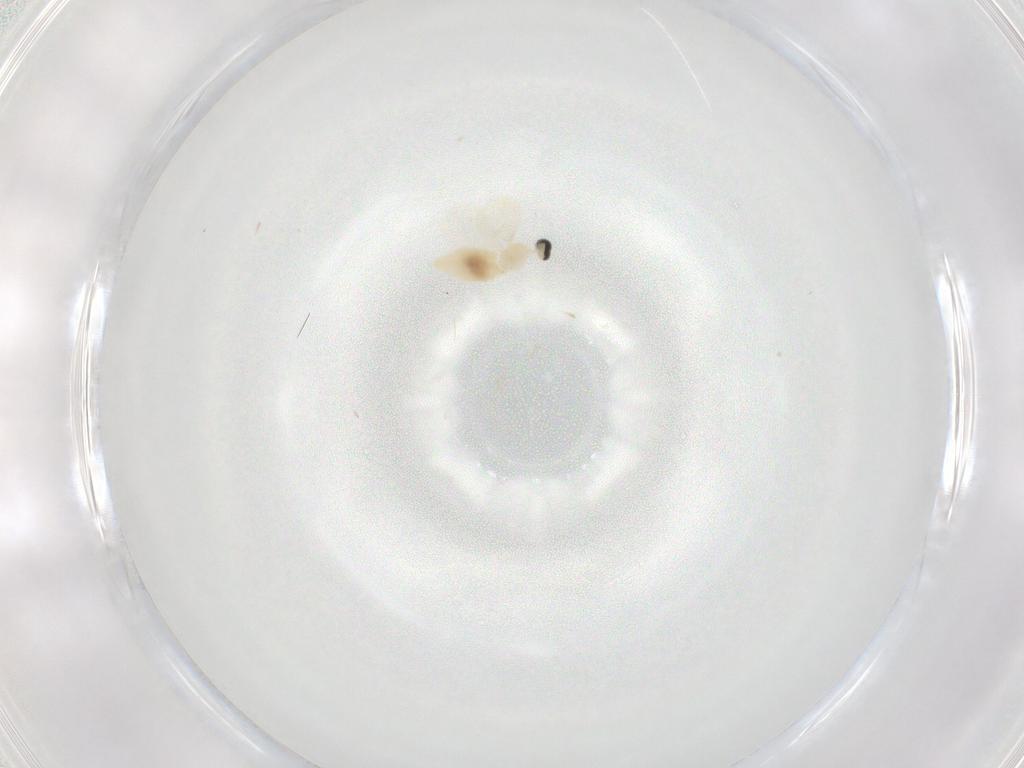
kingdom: Animalia
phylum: Arthropoda
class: Insecta
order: Diptera
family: Cecidomyiidae
